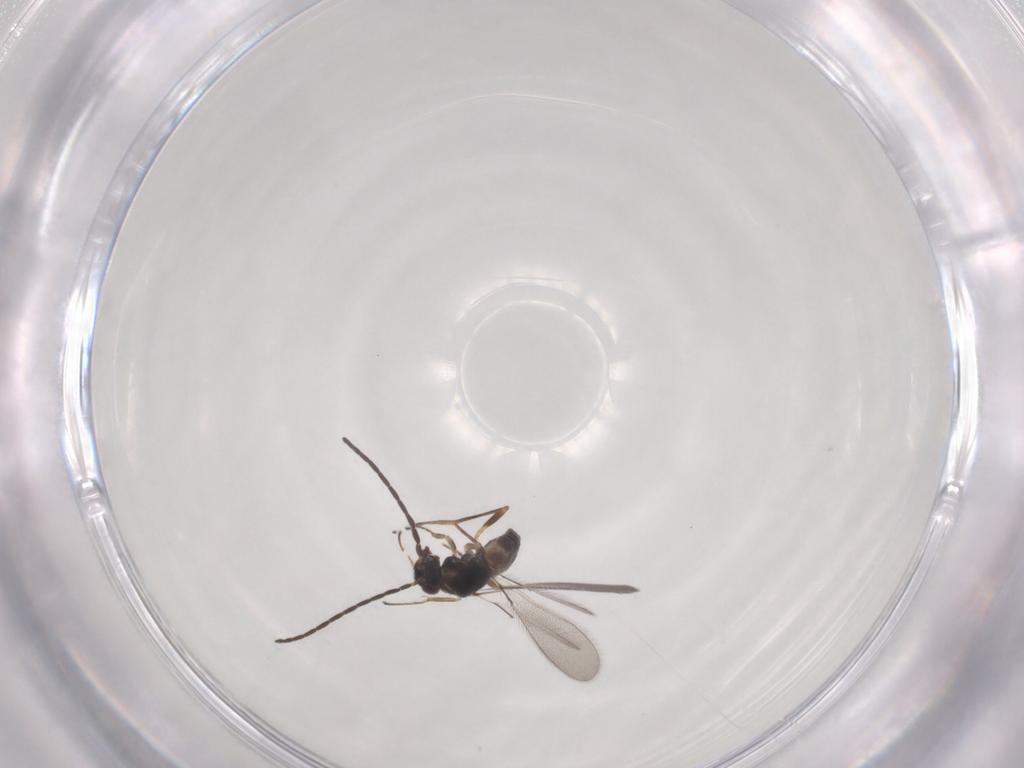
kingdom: Animalia
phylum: Arthropoda
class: Insecta
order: Hymenoptera
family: Mymaridae
